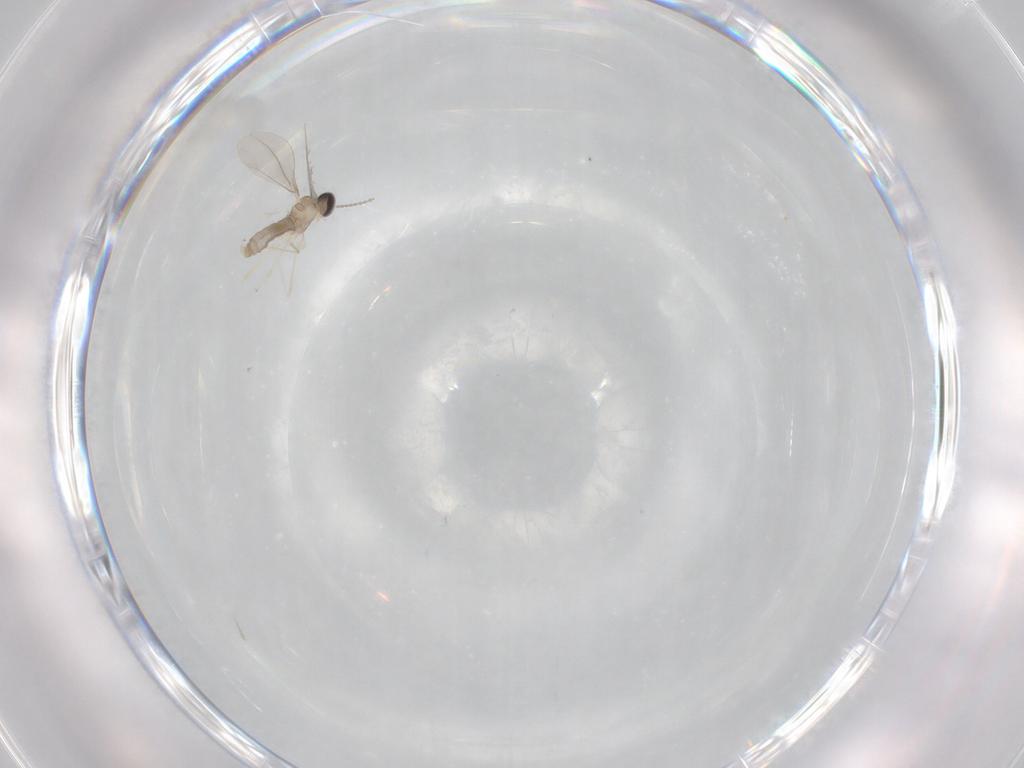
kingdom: Animalia
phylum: Arthropoda
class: Insecta
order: Diptera
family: Cecidomyiidae
